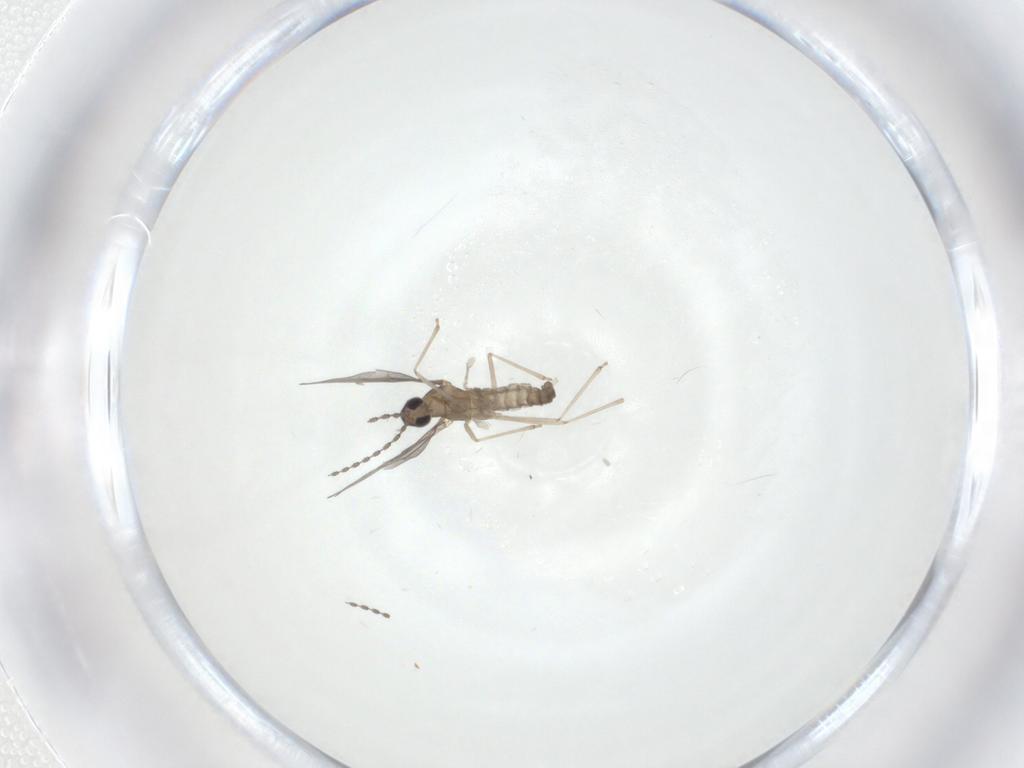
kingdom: Animalia
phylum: Arthropoda
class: Insecta
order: Diptera
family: Cecidomyiidae
